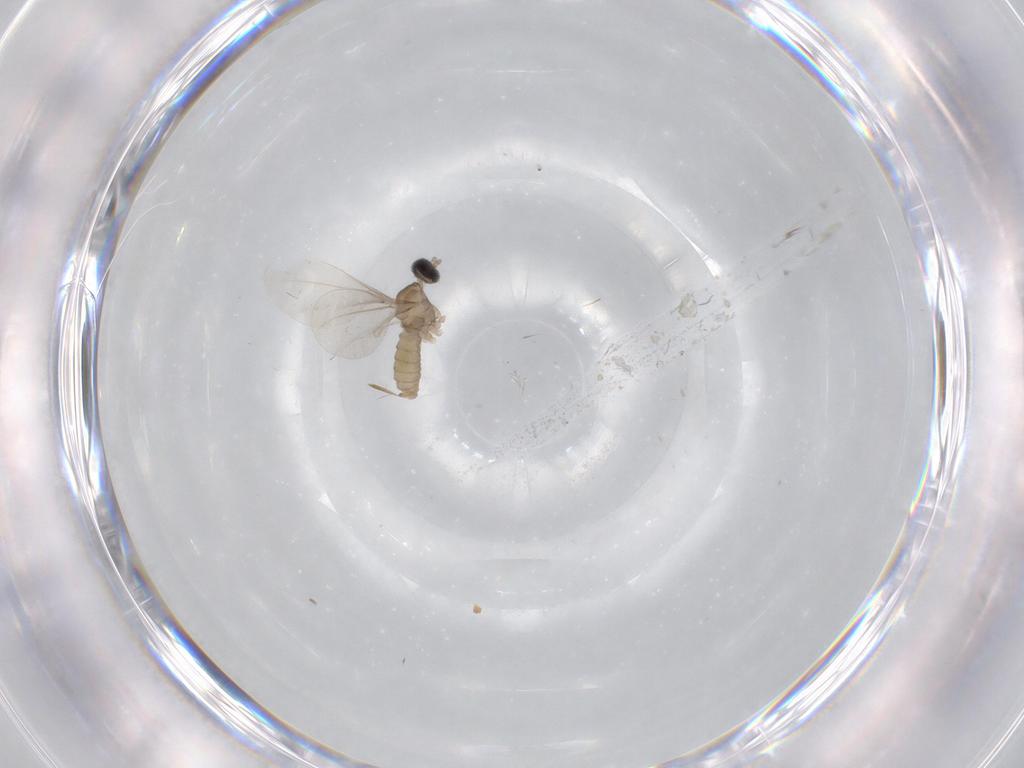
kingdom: Animalia
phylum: Arthropoda
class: Insecta
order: Diptera
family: Cecidomyiidae
